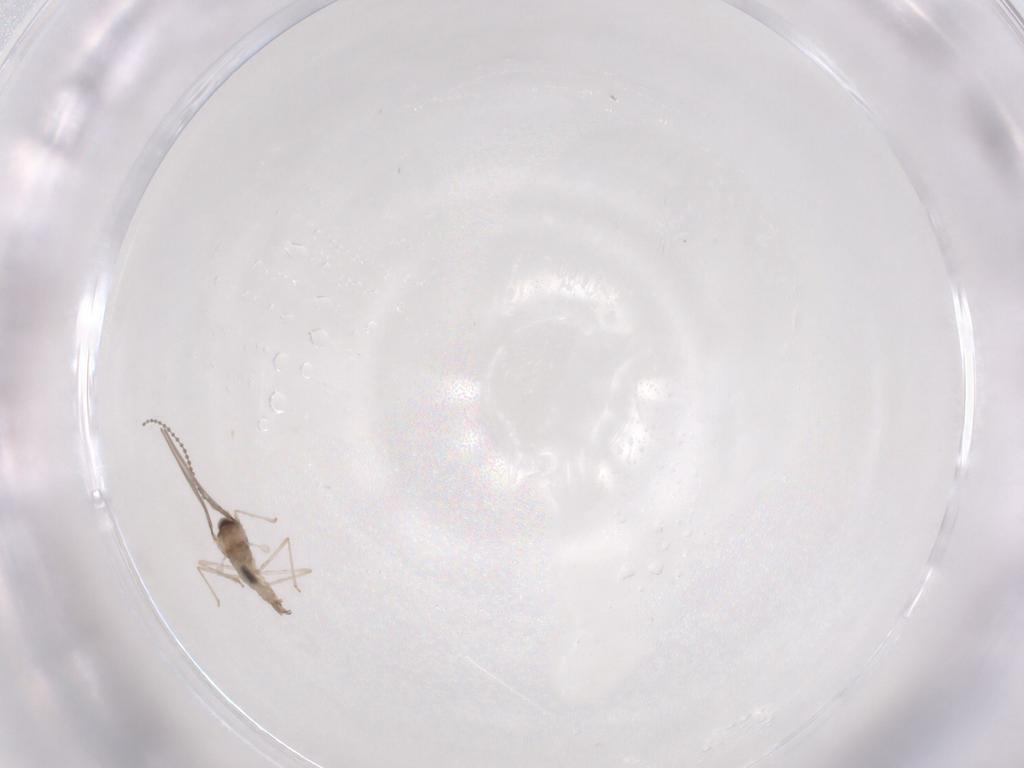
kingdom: Animalia
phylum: Arthropoda
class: Insecta
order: Diptera
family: Cecidomyiidae
